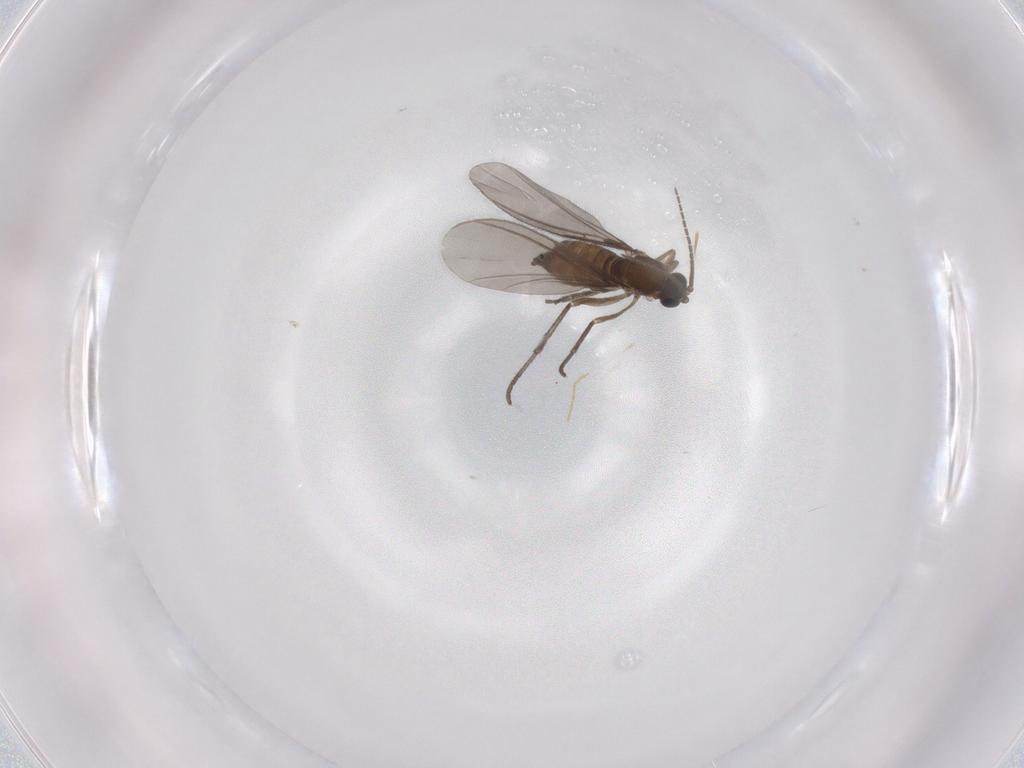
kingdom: Animalia
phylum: Arthropoda
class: Insecta
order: Diptera
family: Sciaridae
